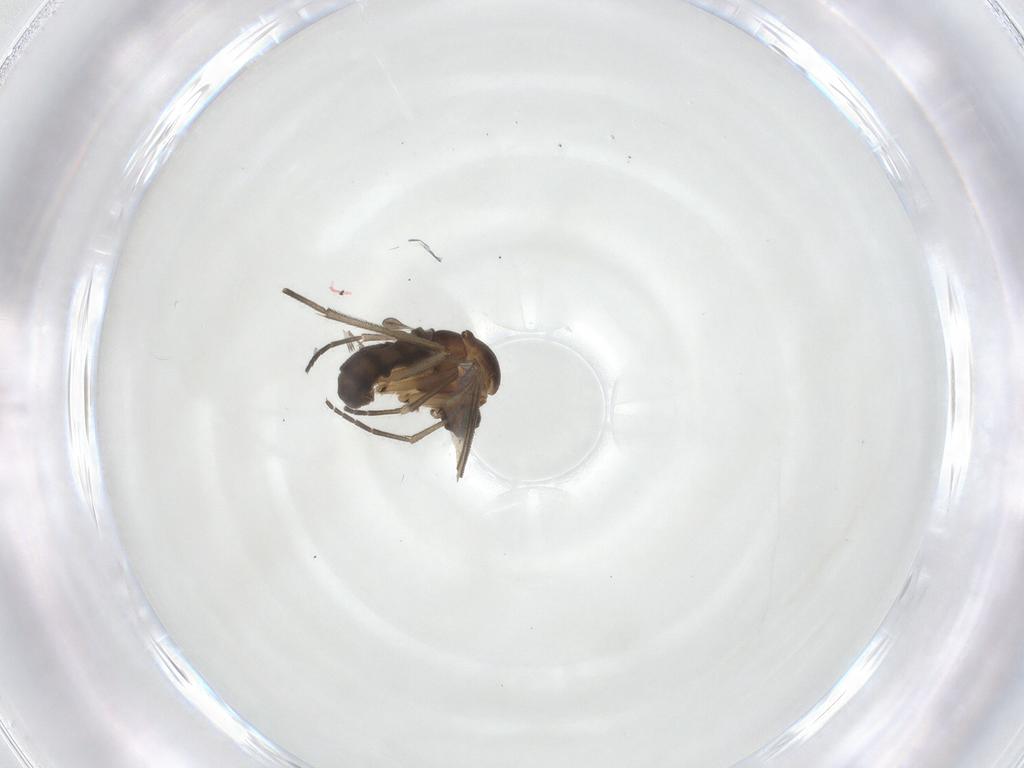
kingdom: Animalia
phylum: Arthropoda
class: Insecta
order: Diptera
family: Sciaridae
